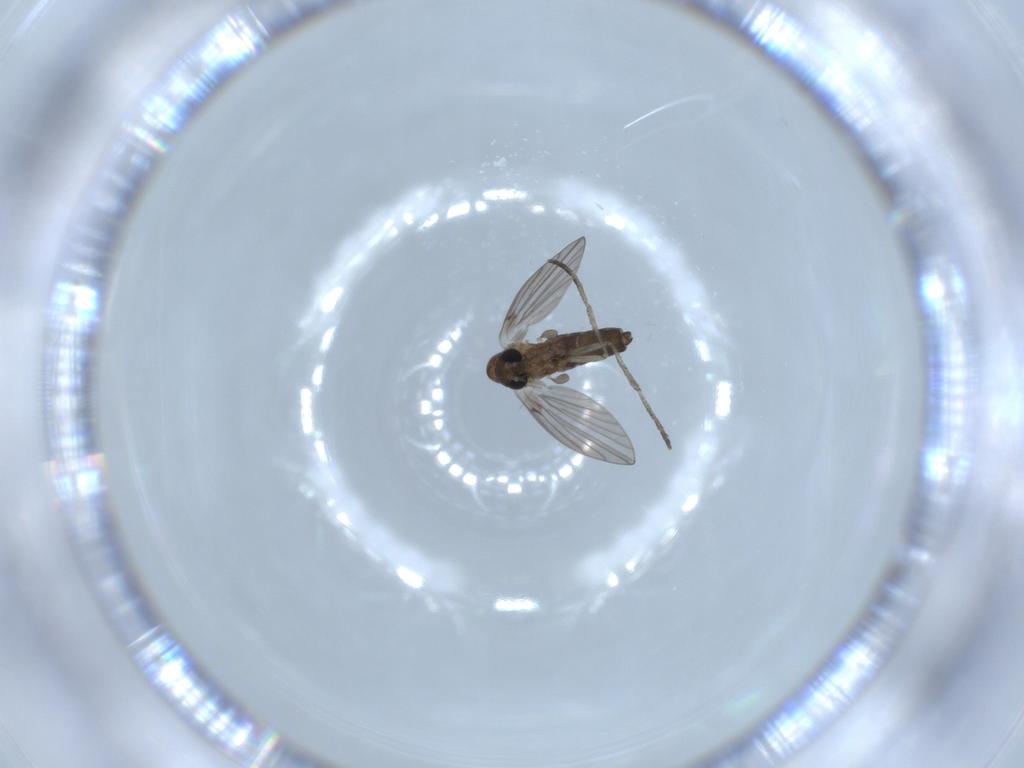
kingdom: Animalia
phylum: Arthropoda
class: Insecta
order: Diptera
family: Psychodidae
